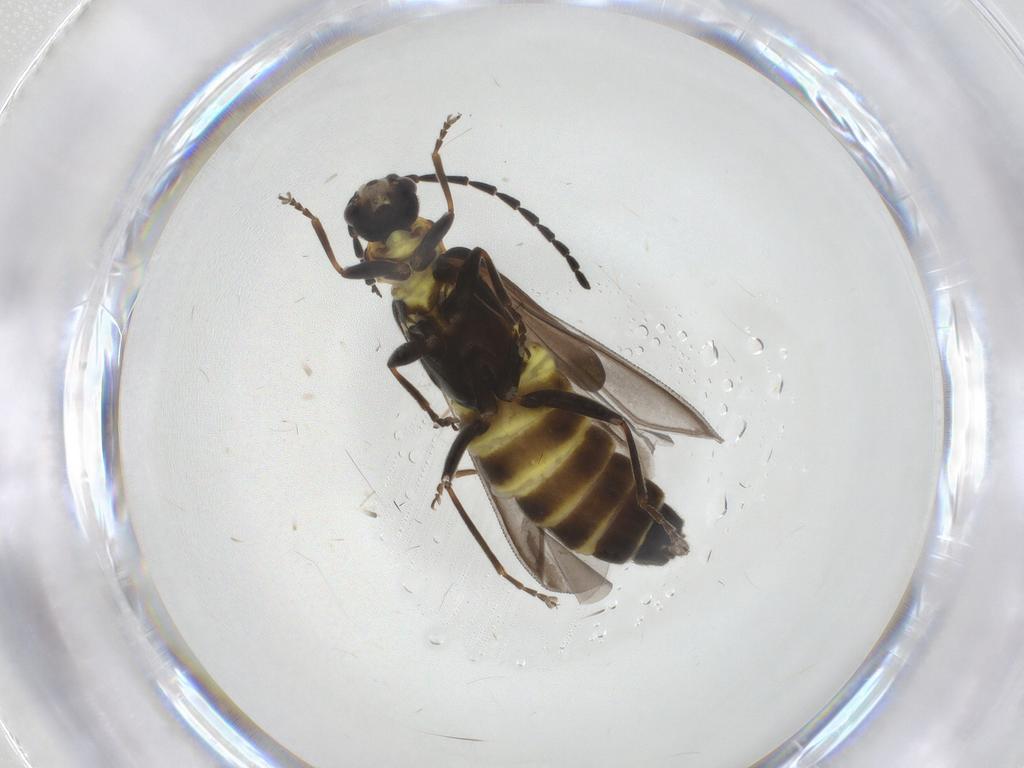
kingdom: Animalia
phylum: Arthropoda
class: Insecta
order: Coleoptera
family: Cantharidae
